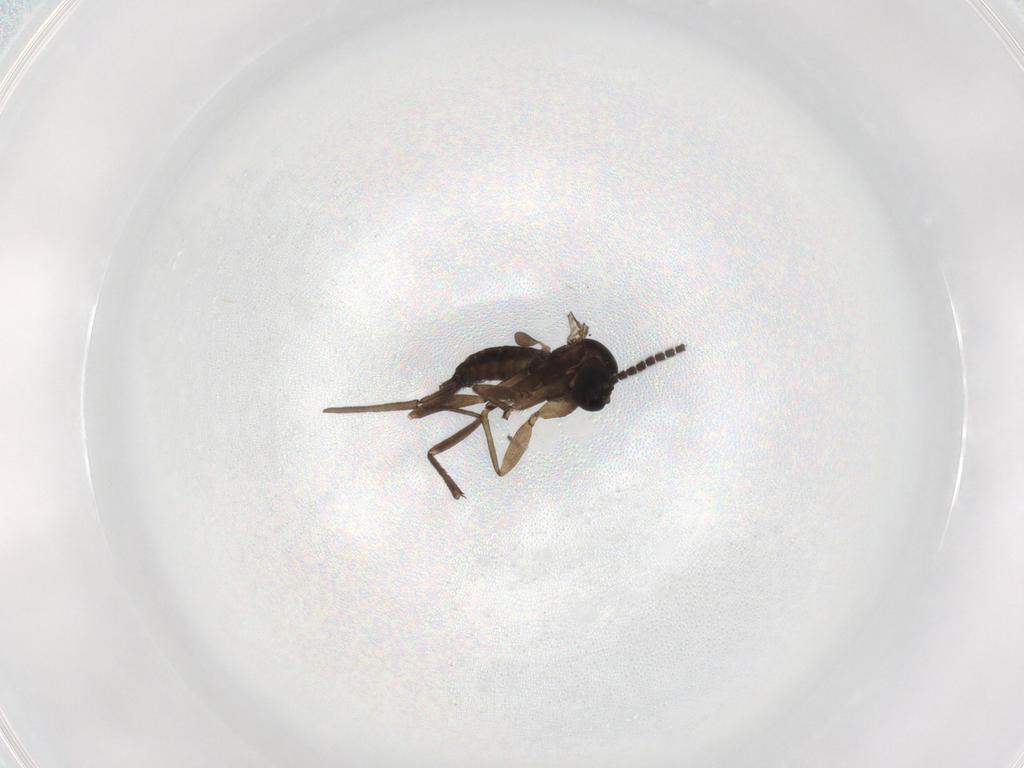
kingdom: Animalia
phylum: Arthropoda
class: Insecta
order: Diptera
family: Sciaridae
